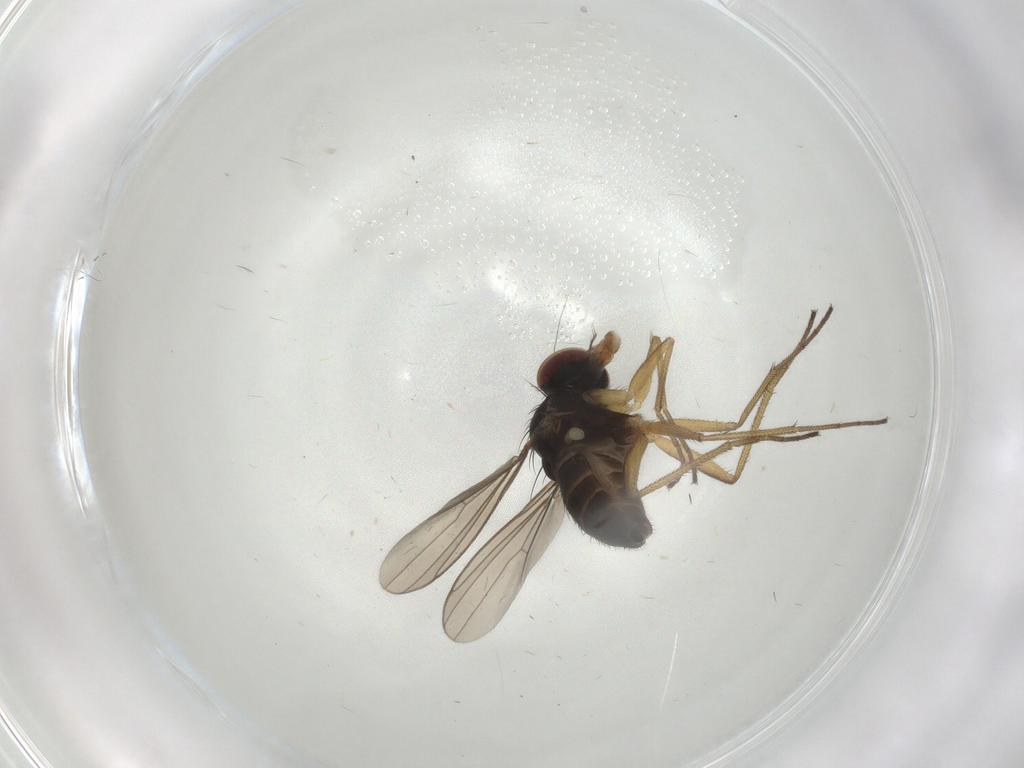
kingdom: Animalia
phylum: Arthropoda
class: Insecta
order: Diptera
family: Dolichopodidae
